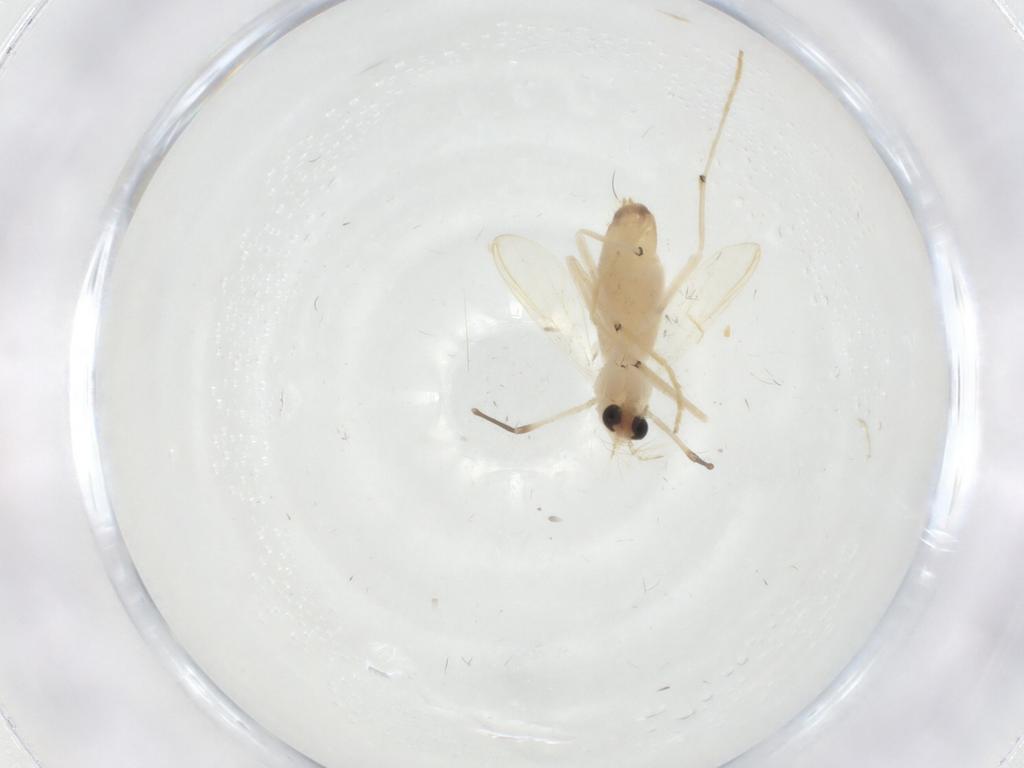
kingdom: Animalia
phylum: Arthropoda
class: Insecta
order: Diptera
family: Chironomidae
